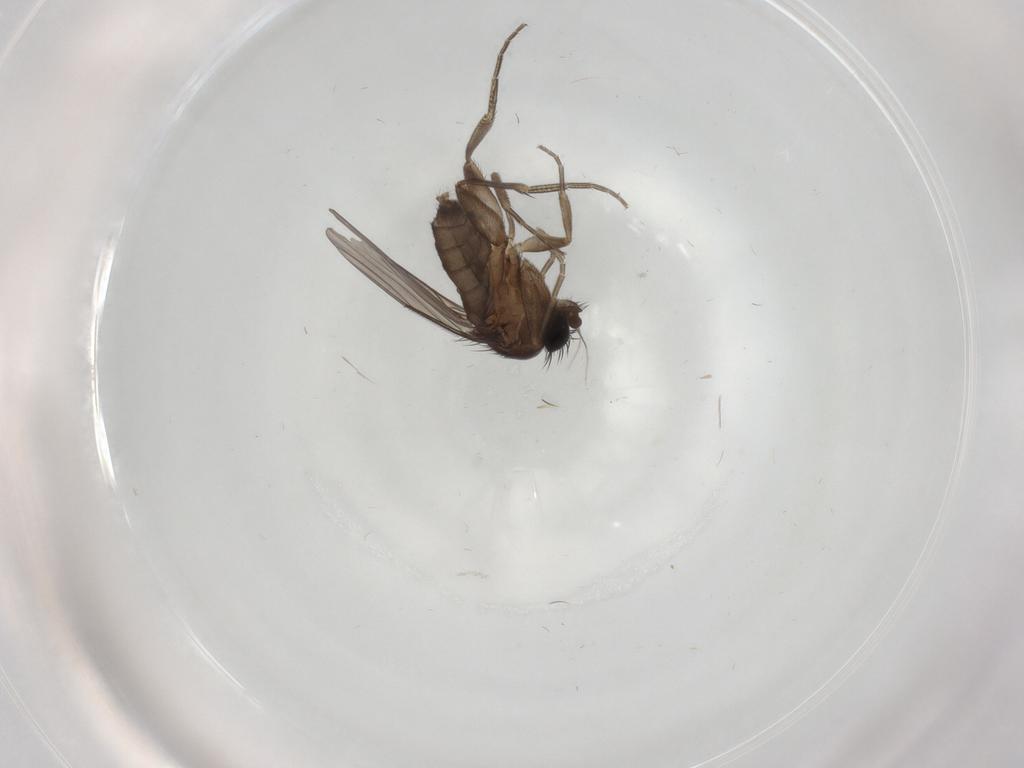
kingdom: Animalia
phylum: Arthropoda
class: Insecta
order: Diptera
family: Phoridae
